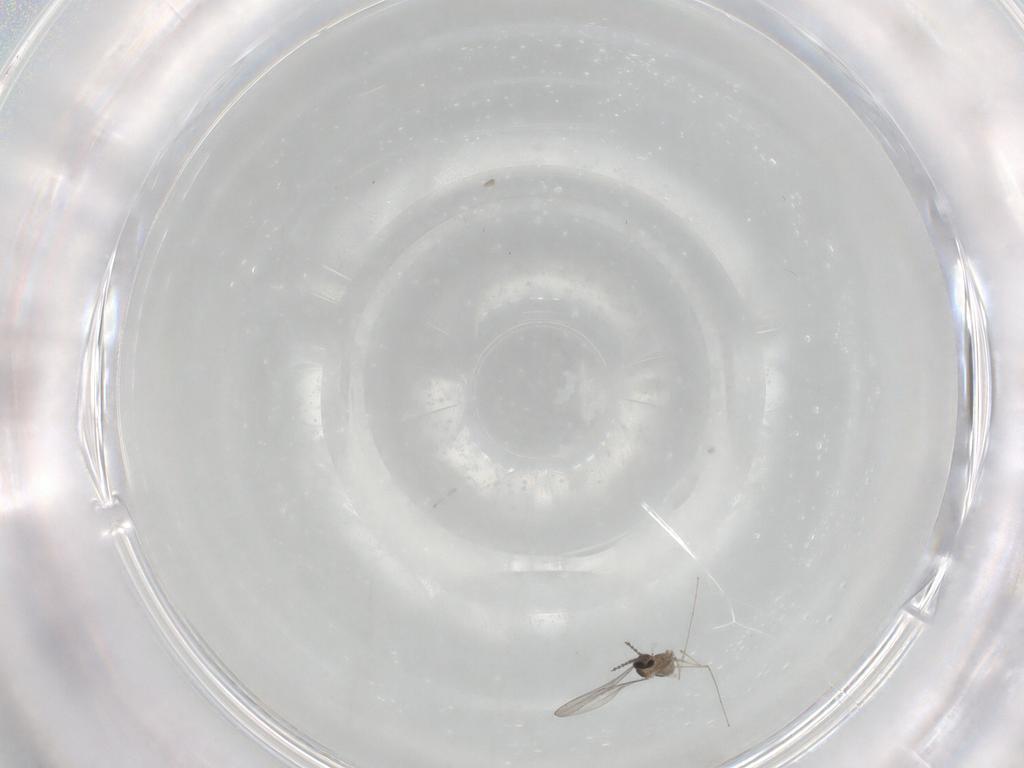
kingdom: Animalia
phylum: Arthropoda
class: Insecta
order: Diptera
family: Cecidomyiidae
